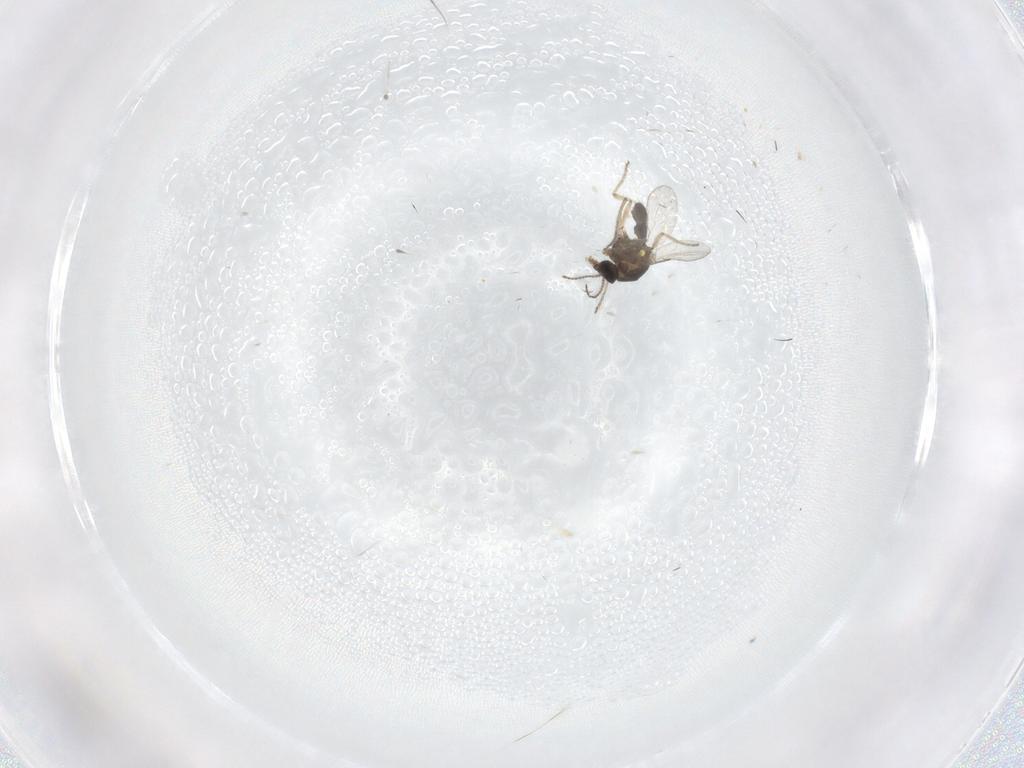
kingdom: Animalia
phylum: Arthropoda
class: Insecta
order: Diptera
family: Ceratopogonidae
